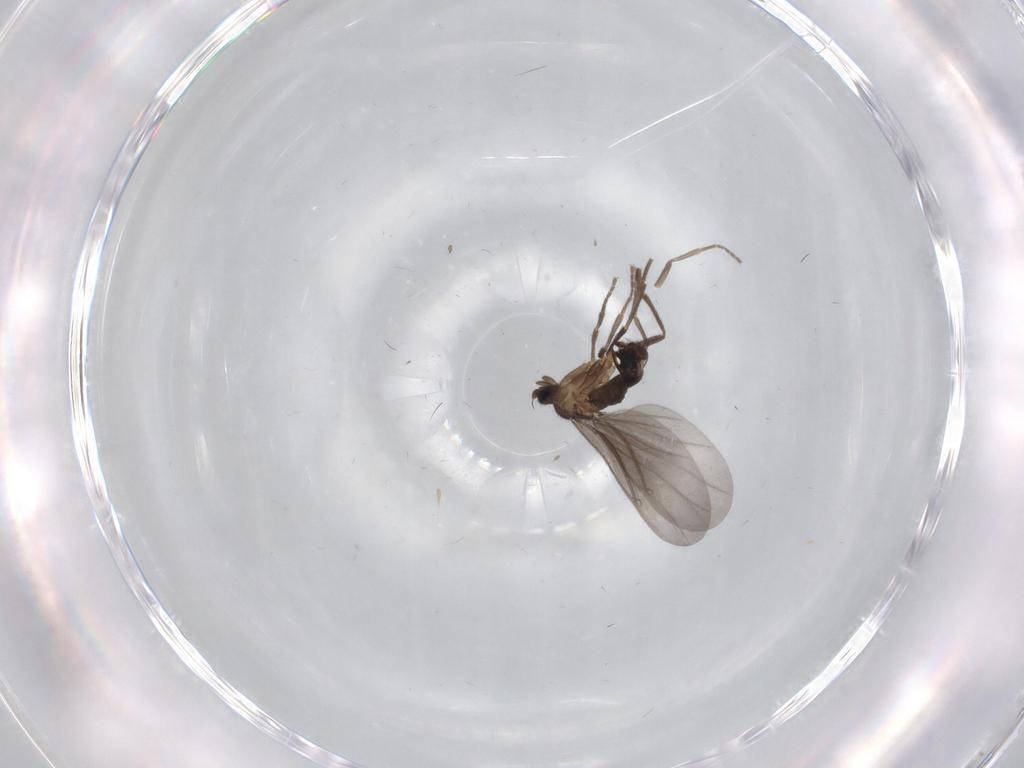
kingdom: Animalia
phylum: Arthropoda
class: Insecta
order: Diptera
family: Phoridae
